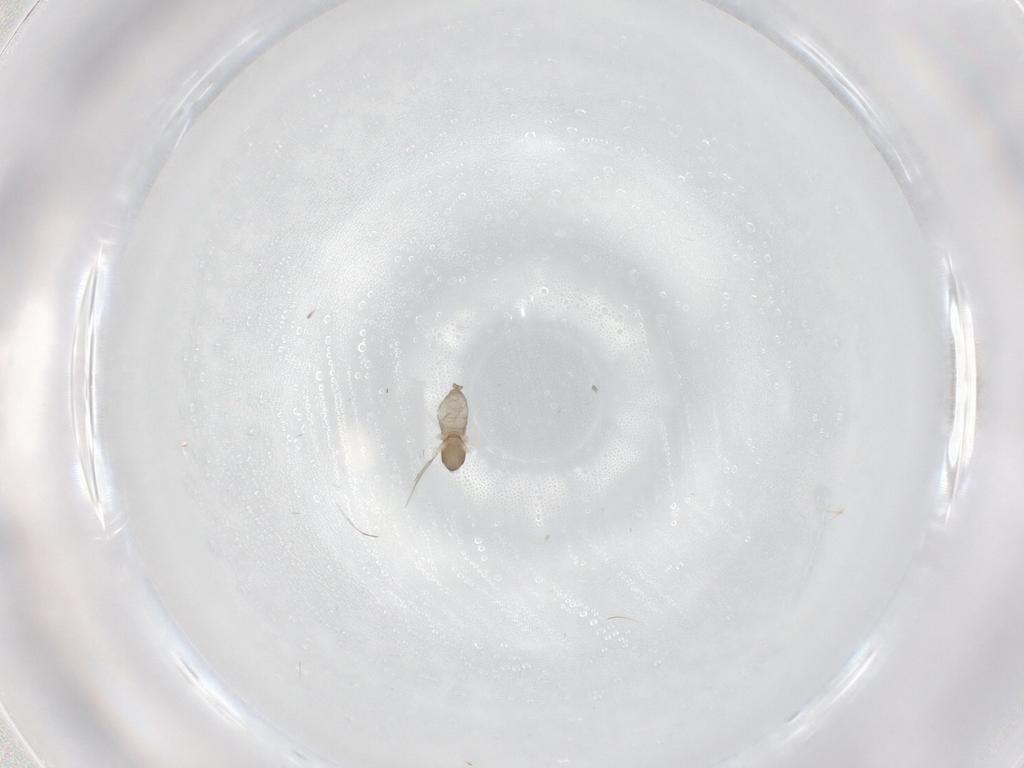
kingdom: Animalia
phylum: Arthropoda
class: Insecta
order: Diptera
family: Cecidomyiidae
